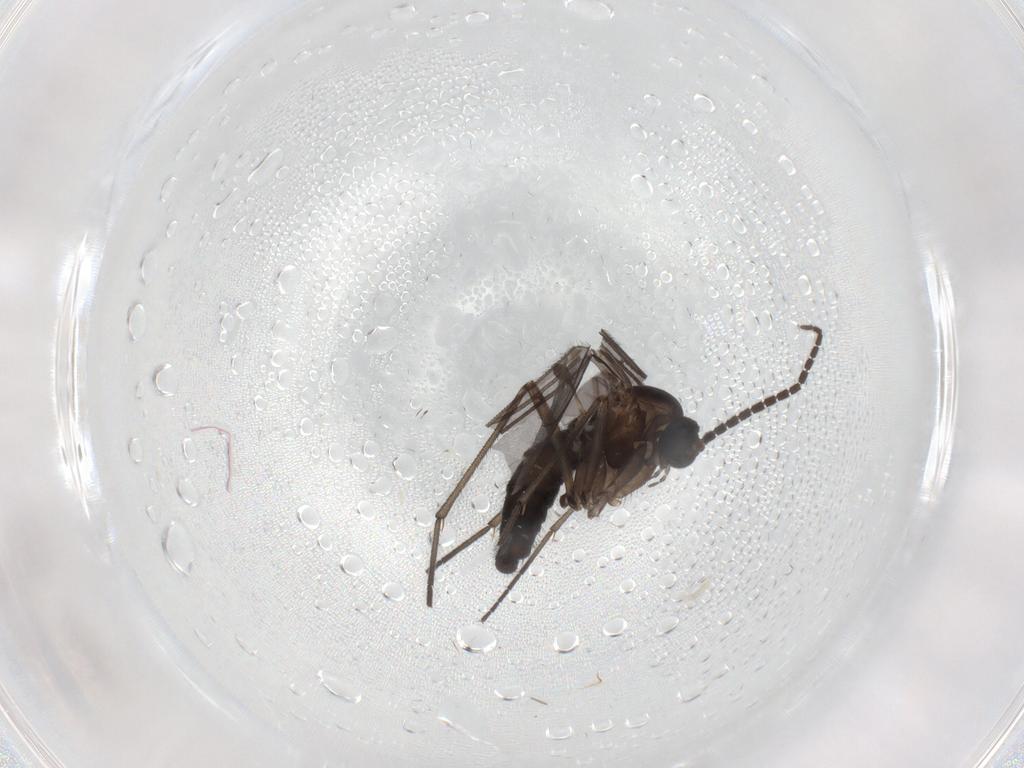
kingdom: Animalia
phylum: Arthropoda
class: Insecta
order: Diptera
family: Sciaridae
